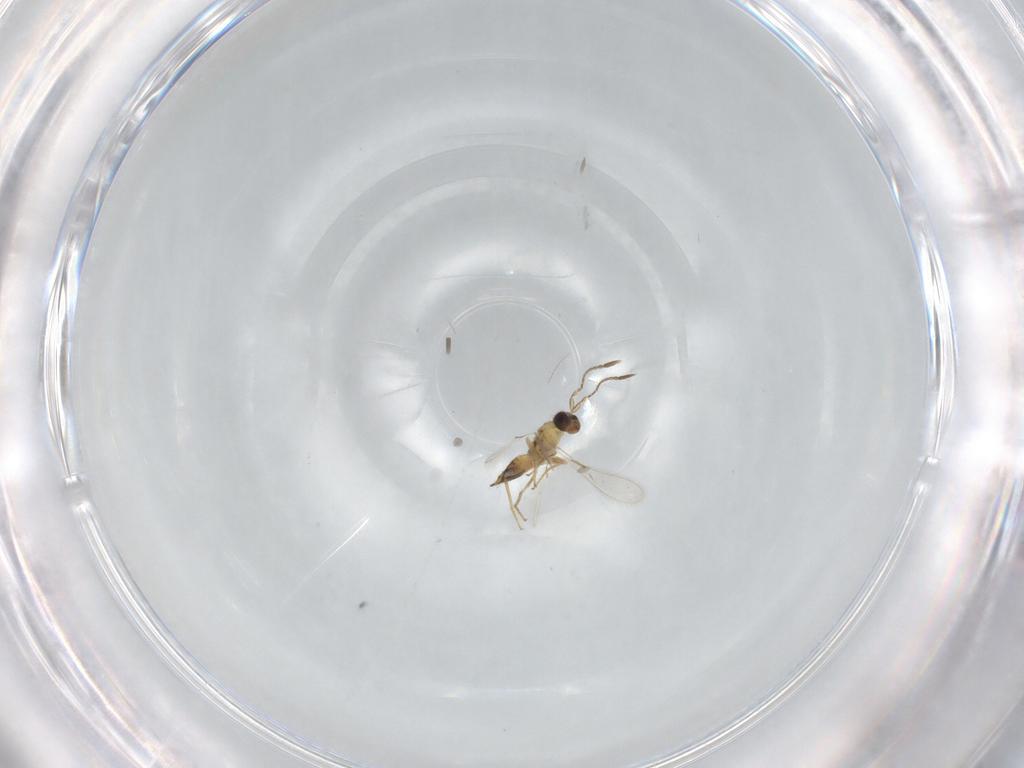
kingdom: Animalia
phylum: Arthropoda
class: Insecta
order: Hymenoptera
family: Mymaridae
